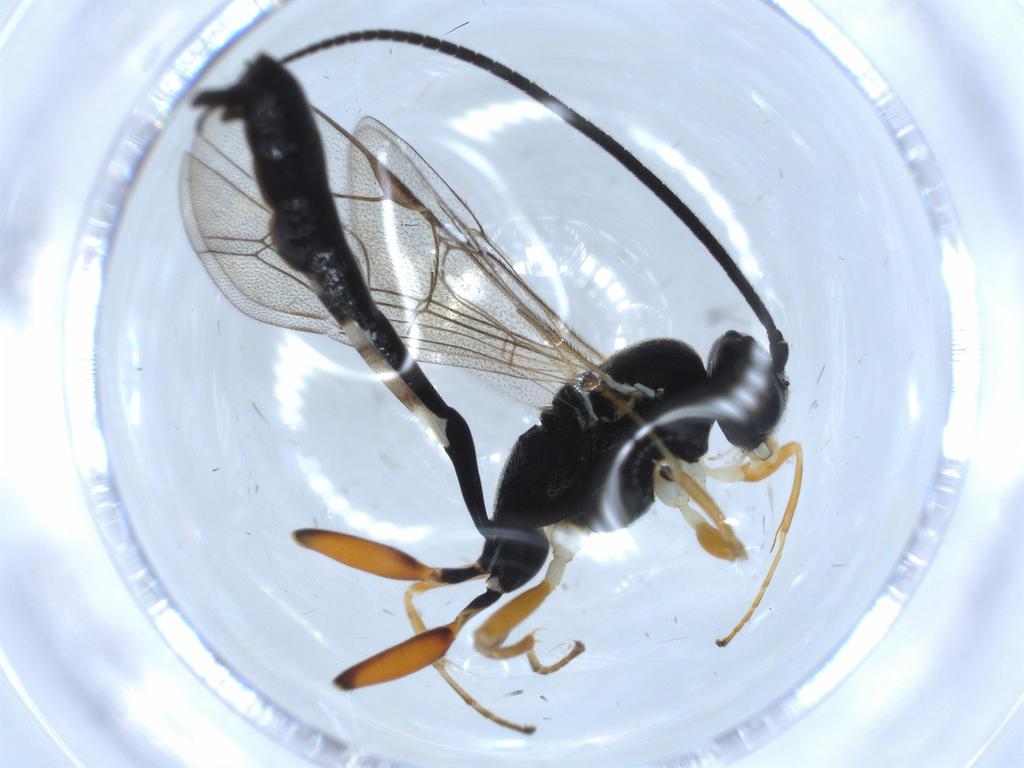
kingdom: Animalia
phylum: Arthropoda
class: Insecta
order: Hymenoptera
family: Ichneumonidae
